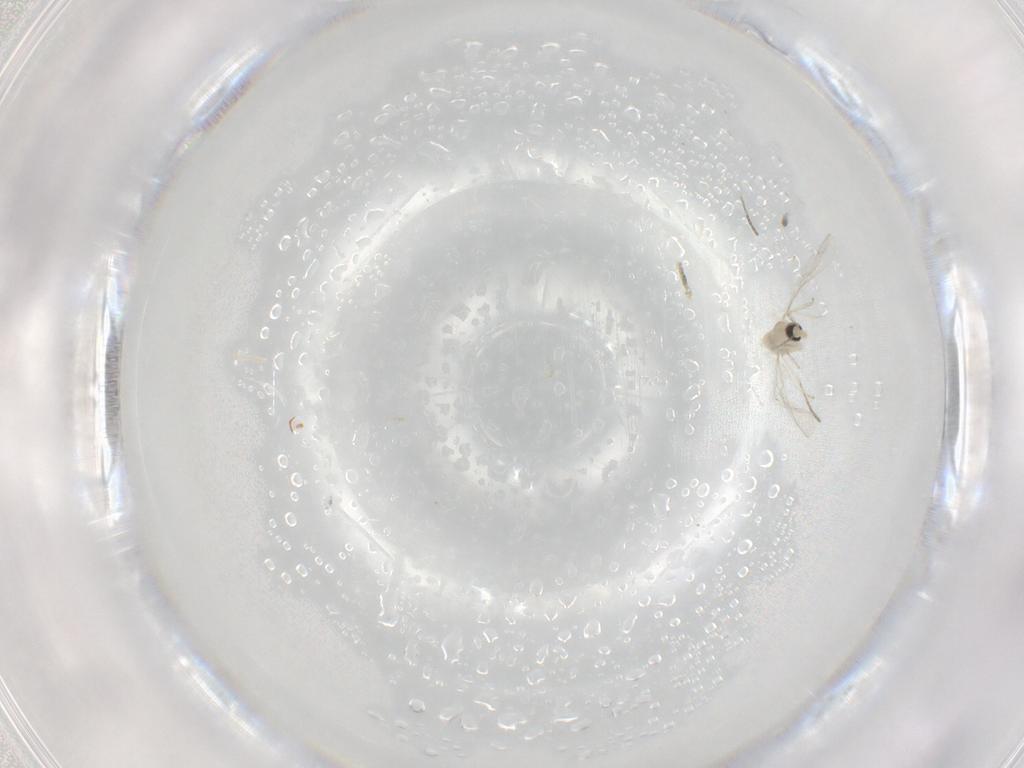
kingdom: Animalia
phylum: Arthropoda
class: Insecta
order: Diptera
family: Cecidomyiidae
